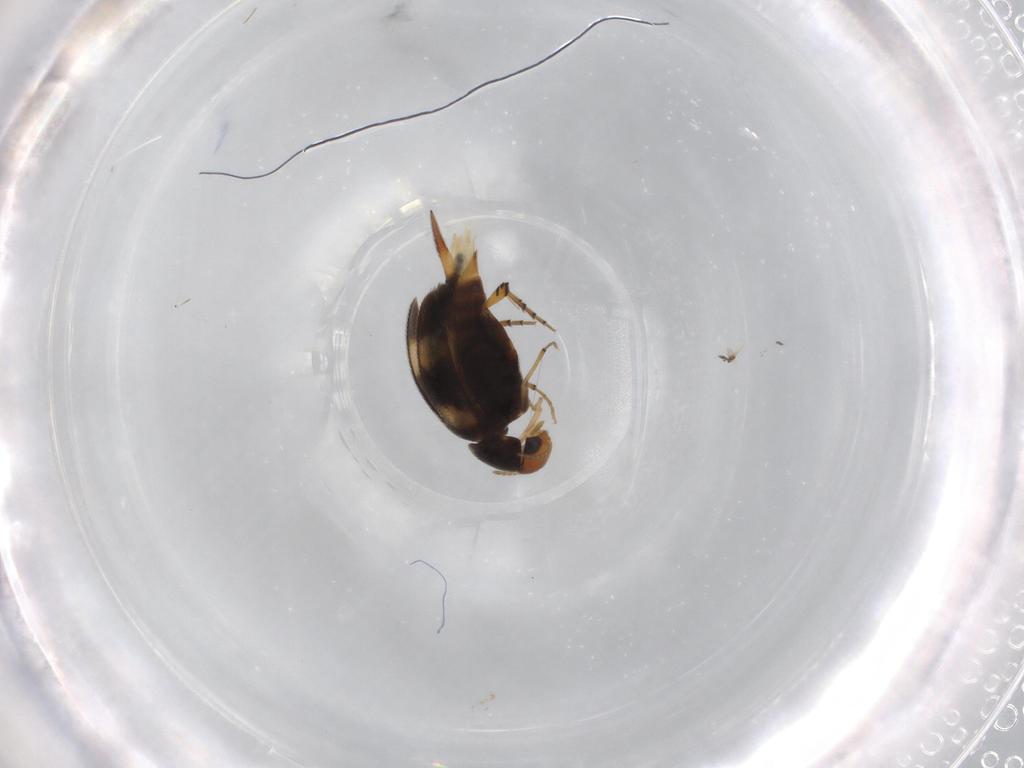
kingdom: Animalia
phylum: Arthropoda
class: Insecta
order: Coleoptera
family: Mordellidae
